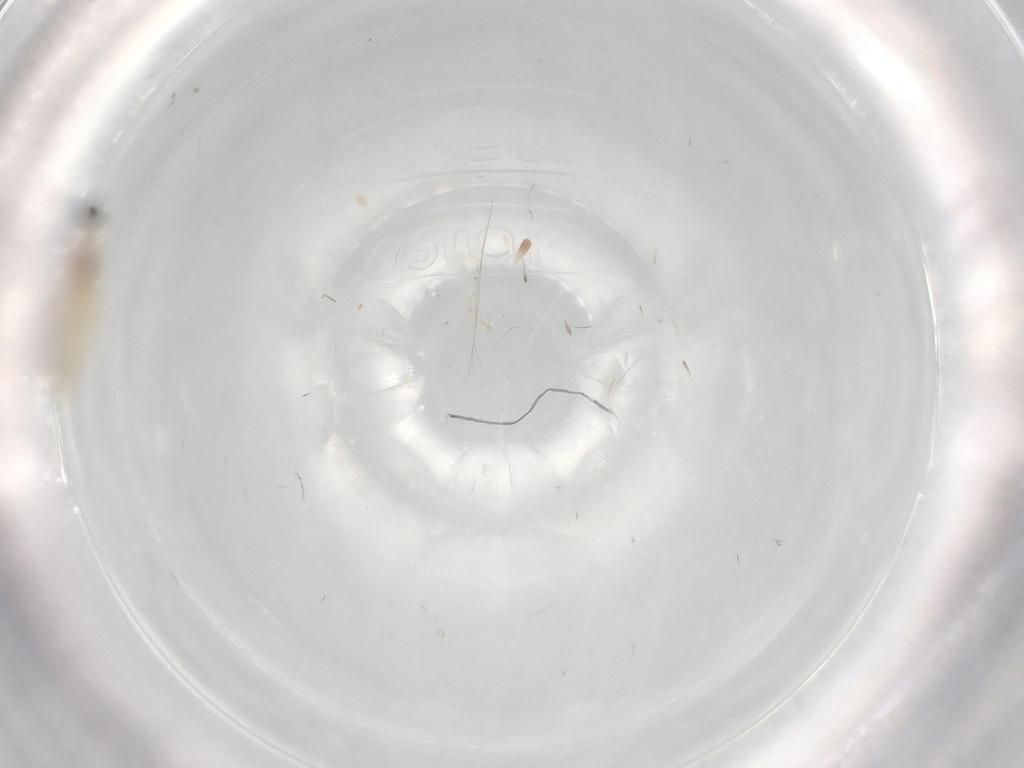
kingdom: Animalia
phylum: Arthropoda
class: Insecta
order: Diptera
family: Cecidomyiidae
